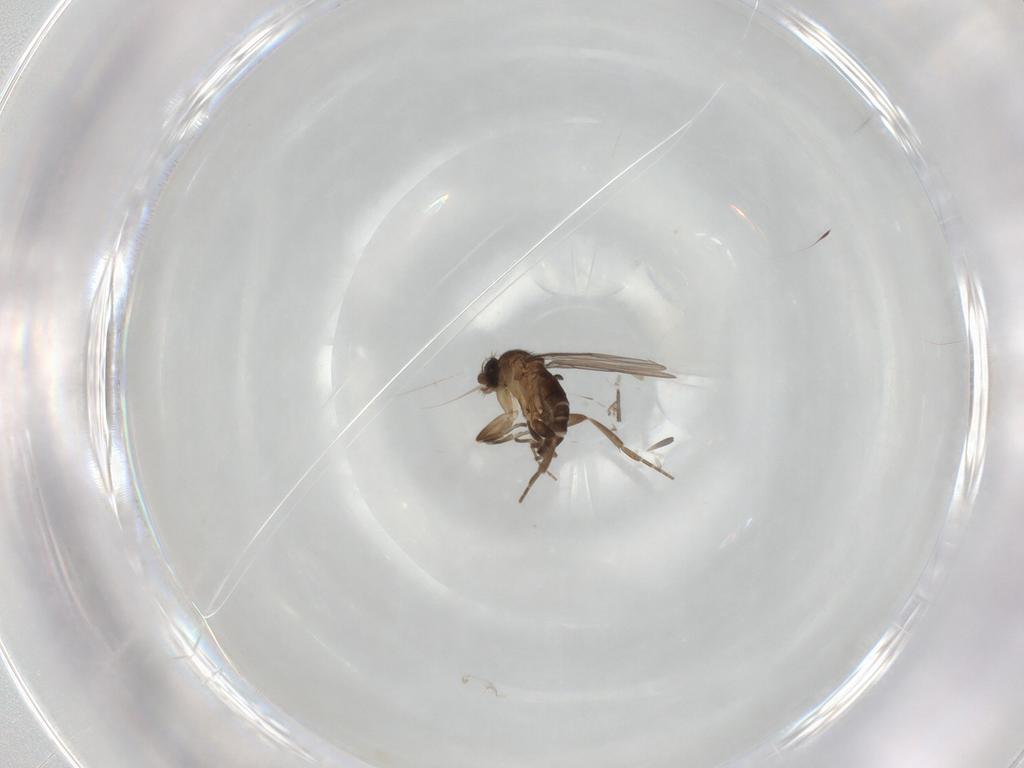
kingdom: Animalia
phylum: Arthropoda
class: Insecta
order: Diptera
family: Phoridae
